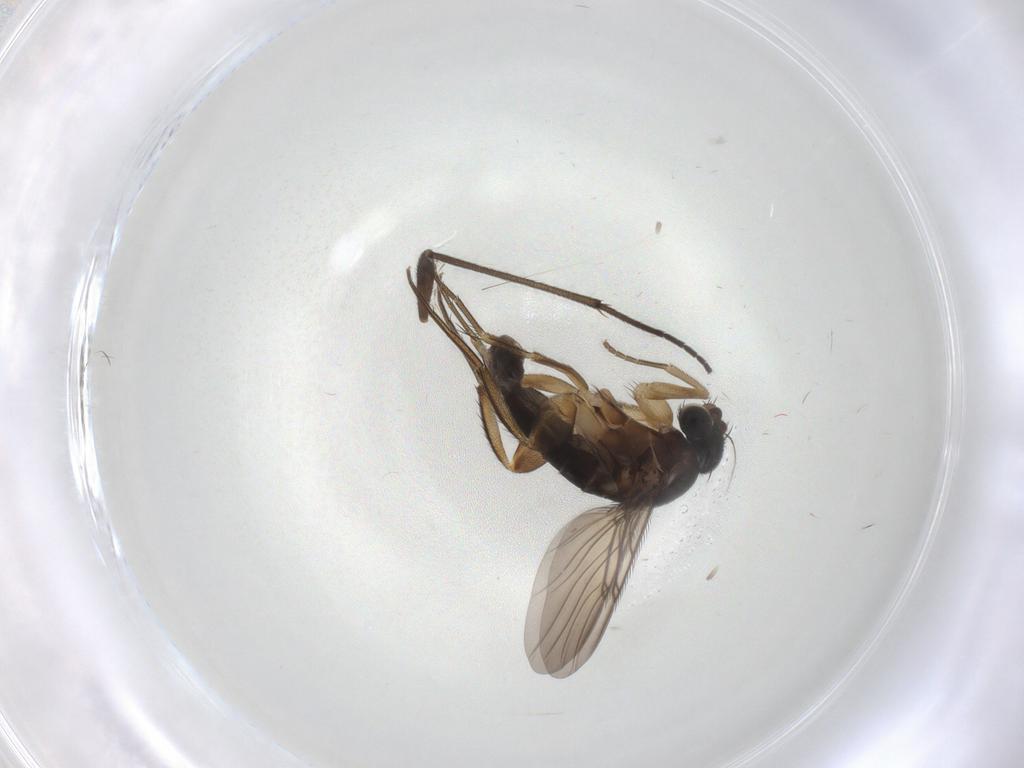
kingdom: Animalia
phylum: Arthropoda
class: Insecta
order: Diptera
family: Phoridae
